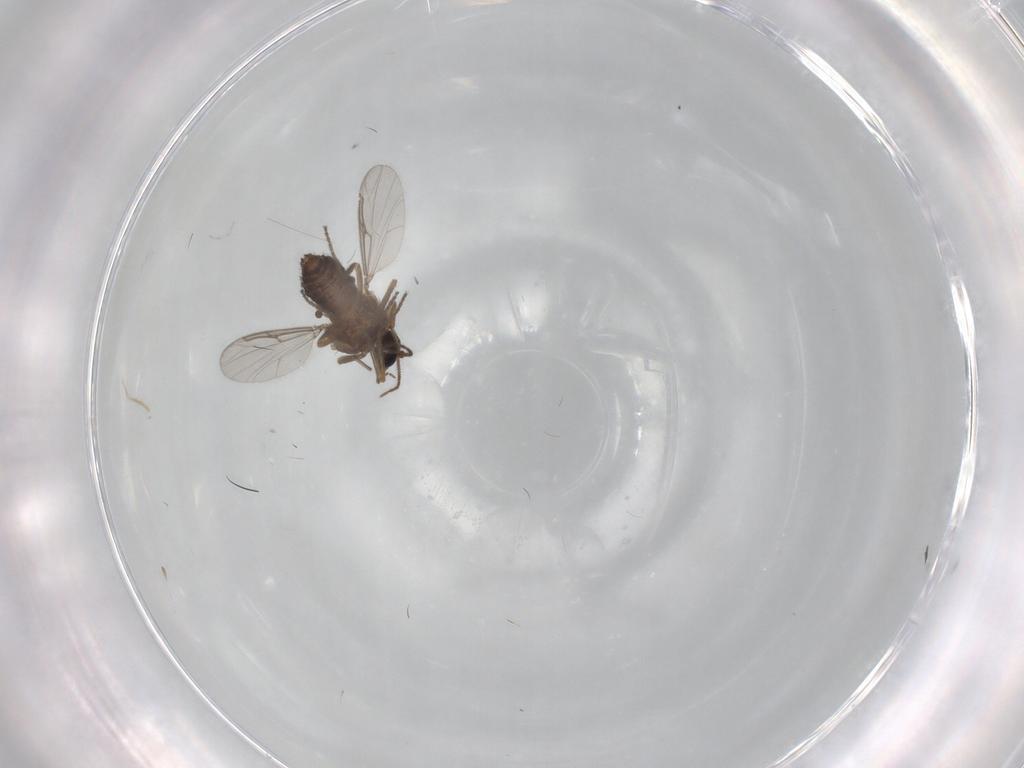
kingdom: Animalia
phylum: Arthropoda
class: Insecta
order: Diptera
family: Ceratopogonidae
